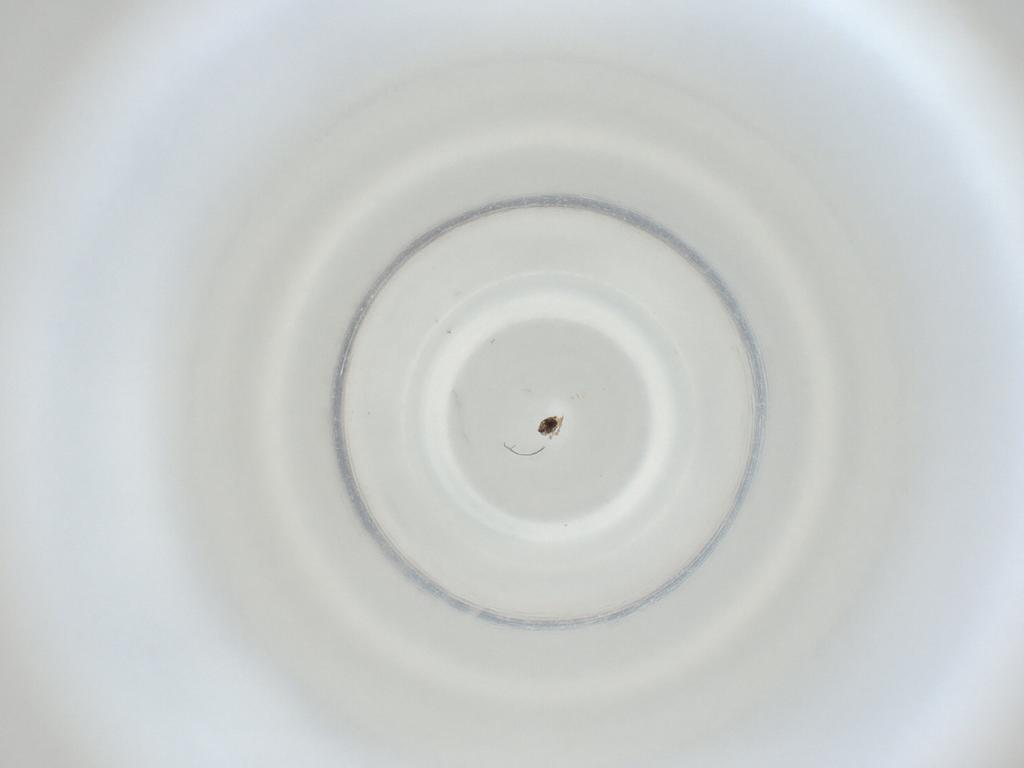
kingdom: Animalia
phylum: Arthropoda
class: Insecta
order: Diptera
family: Cecidomyiidae
